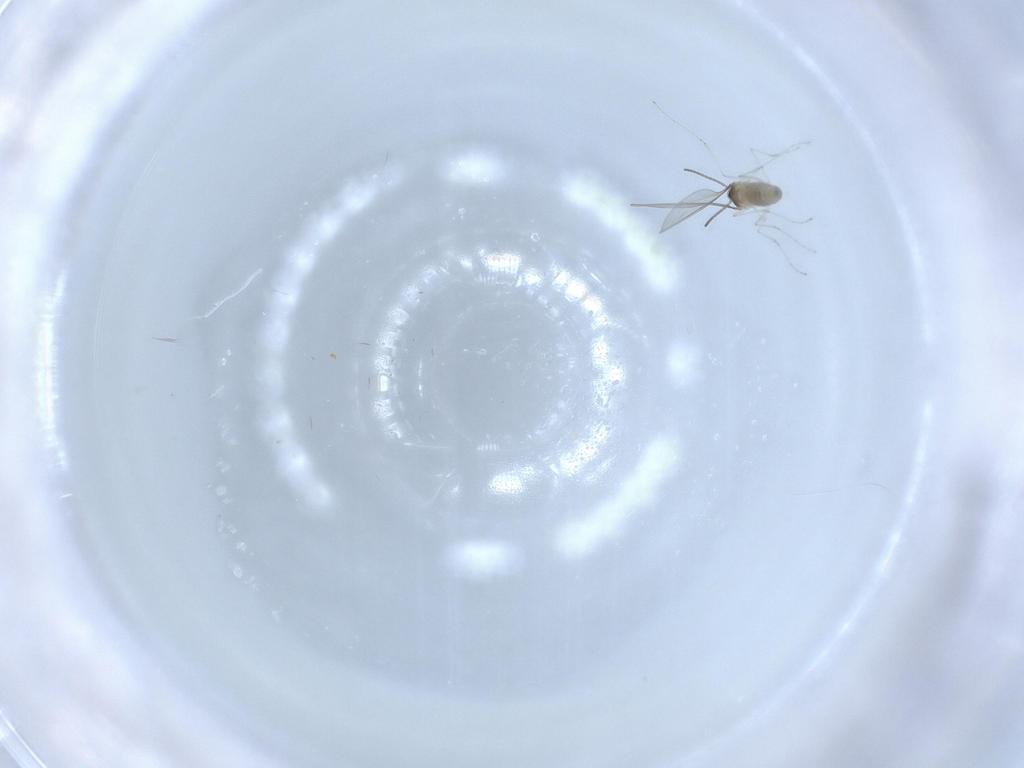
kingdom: Animalia
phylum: Arthropoda
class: Insecta
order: Diptera
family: Cecidomyiidae
